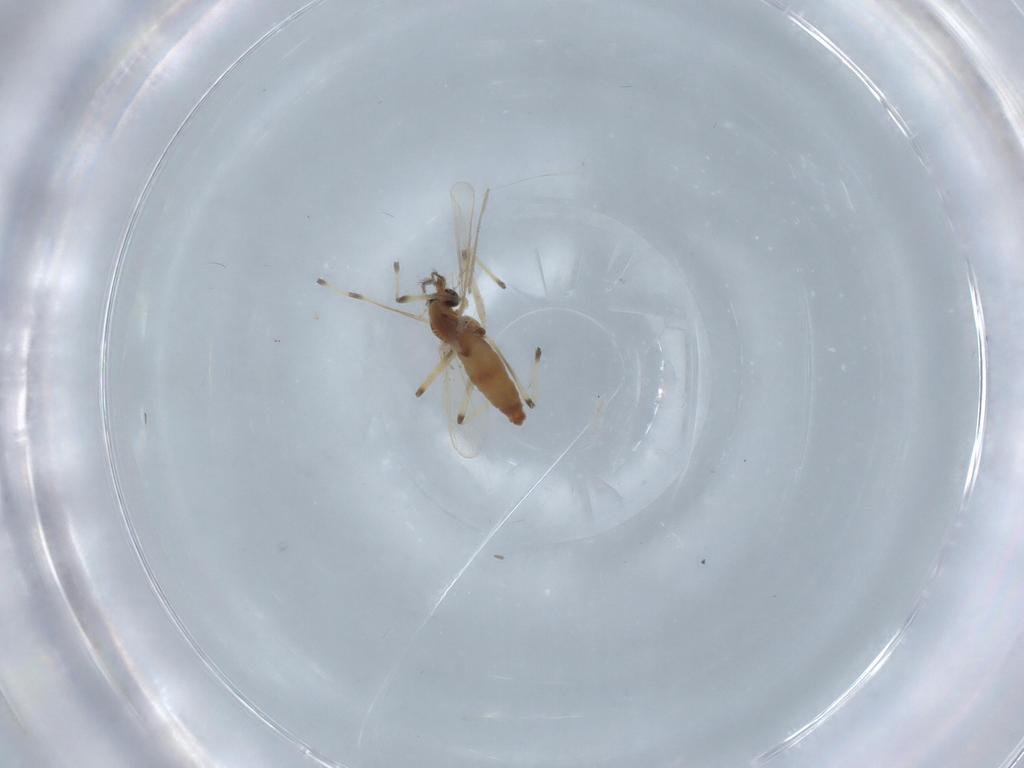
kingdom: Animalia
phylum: Arthropoda
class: Insecta
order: Diptera
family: Chironomidae
